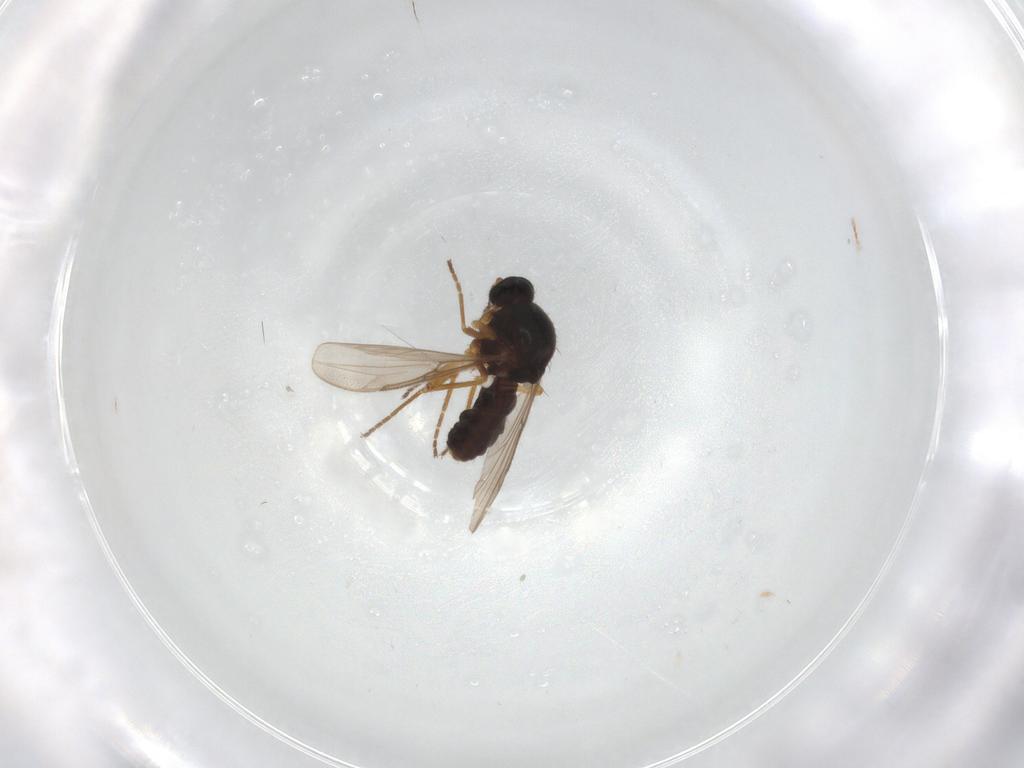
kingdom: Animalia
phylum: Arthropoda
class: Insecta
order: Diptera
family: Ceratopogonidae
